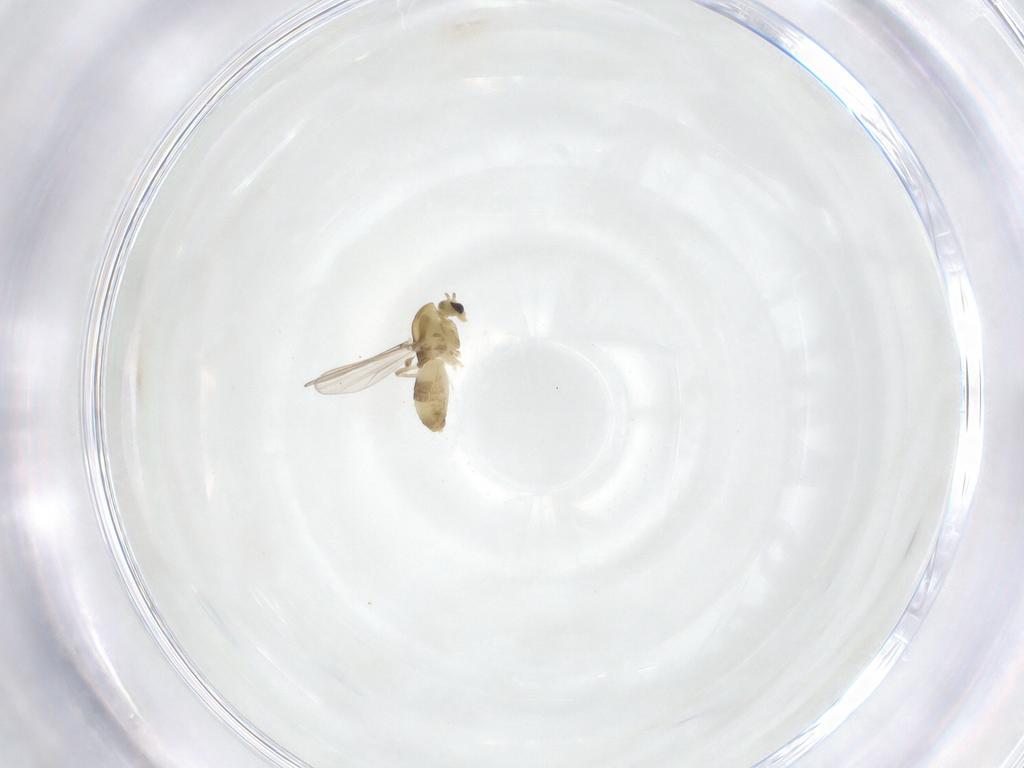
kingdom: Animalia
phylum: Arthropoda
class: Insecta
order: Diptera
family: Chironomidae
